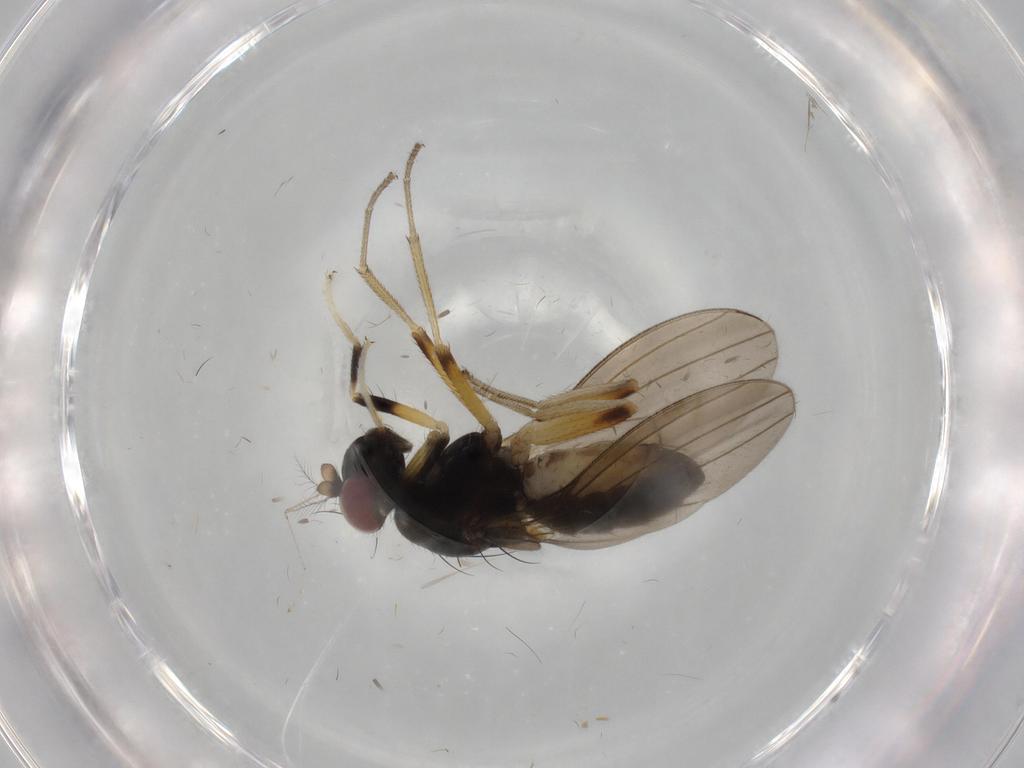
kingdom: Animalia
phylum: Arthropoda
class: Insecta
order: Diptera
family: Lauxaniidae
